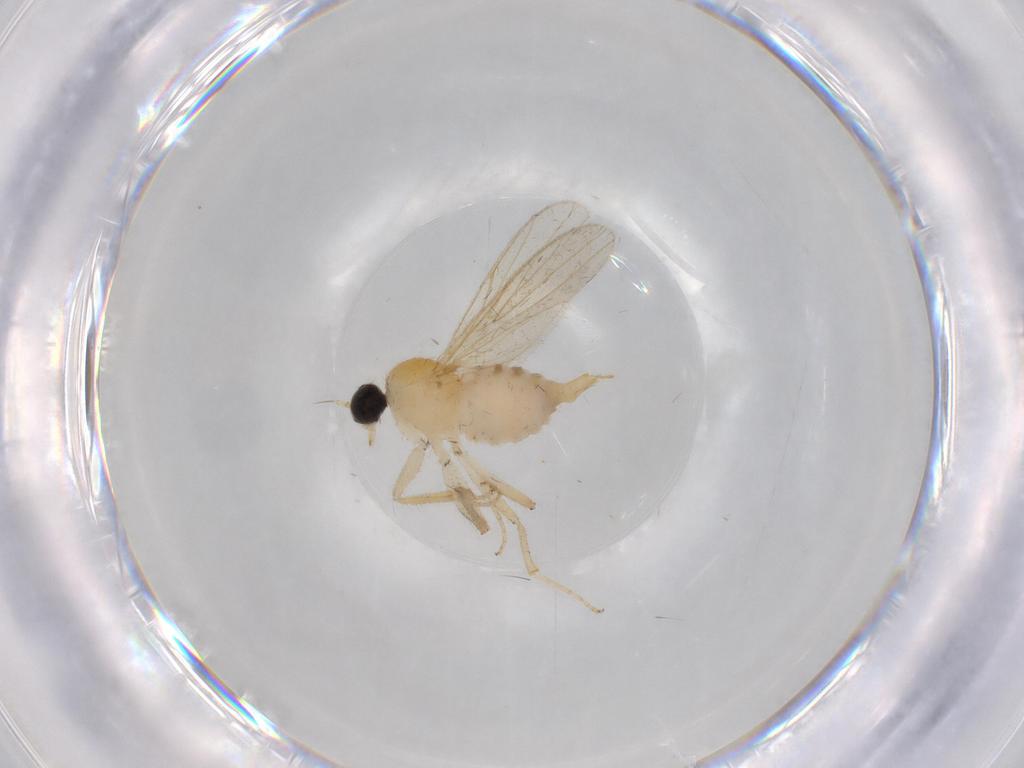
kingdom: Animalia
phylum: Arthropoda
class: Insecta
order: Diptera
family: Sciaridae
